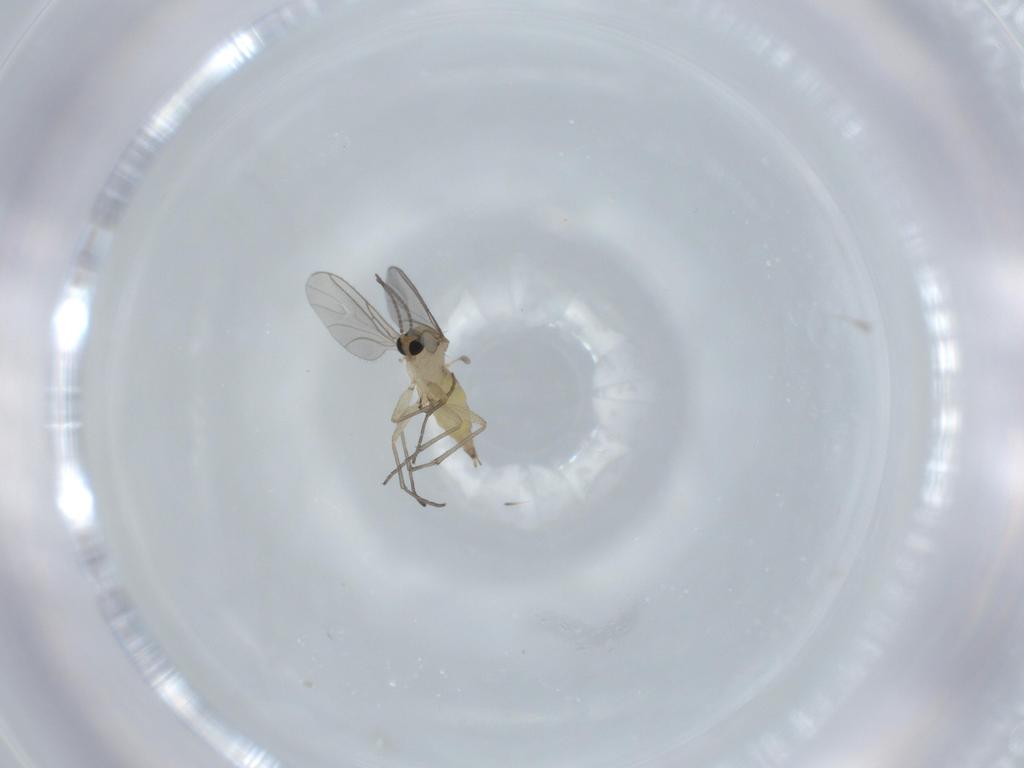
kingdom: Animalia
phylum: Arthropoda
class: Insecta
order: Diptera
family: Sciaridae
